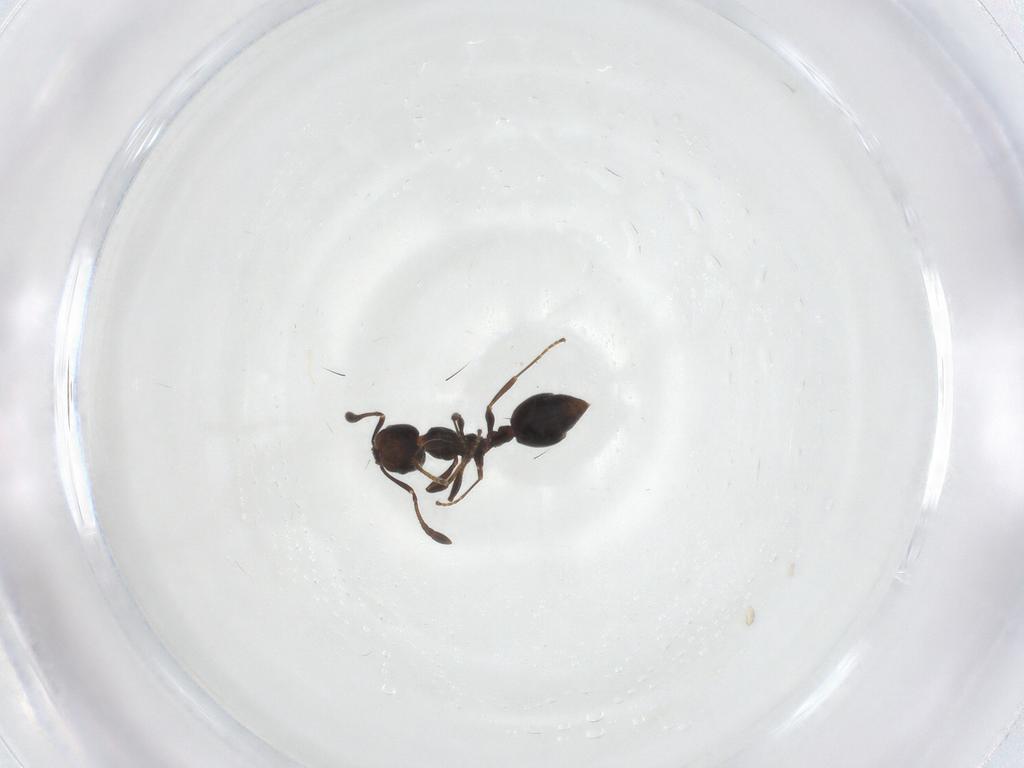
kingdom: Animalia
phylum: Arthropoda
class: Insecta
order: Hymenoptera
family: Formicidae
